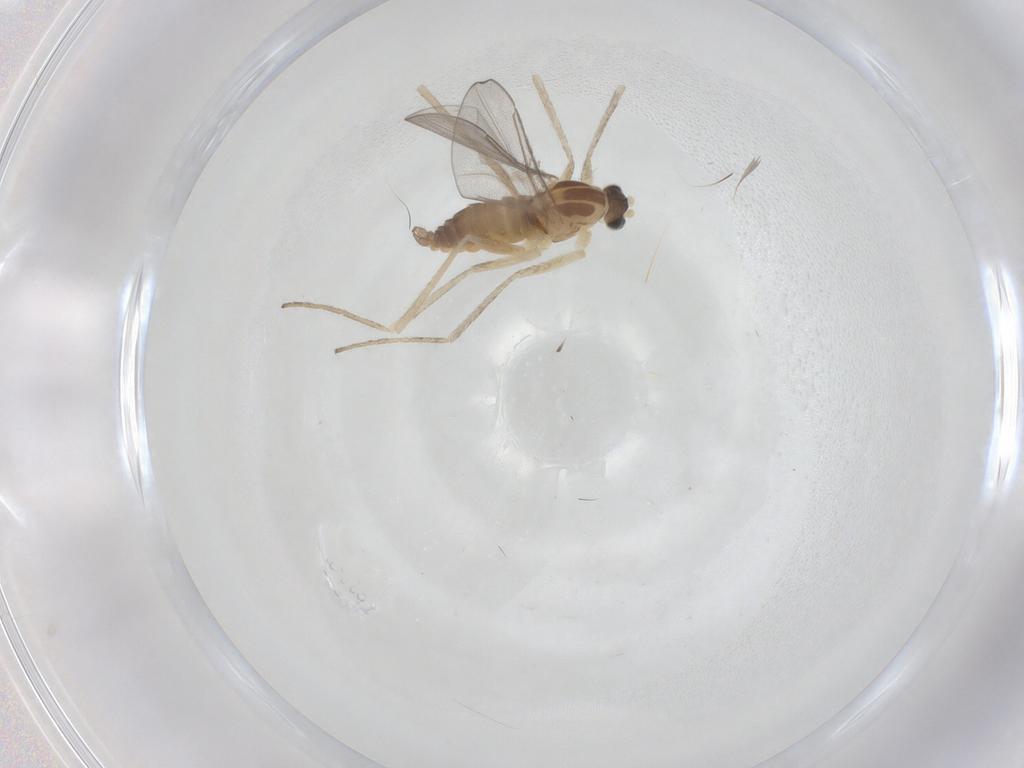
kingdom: Animalia
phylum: Arthropoda
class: Insecta
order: Diptera
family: Cecidomyiidae
